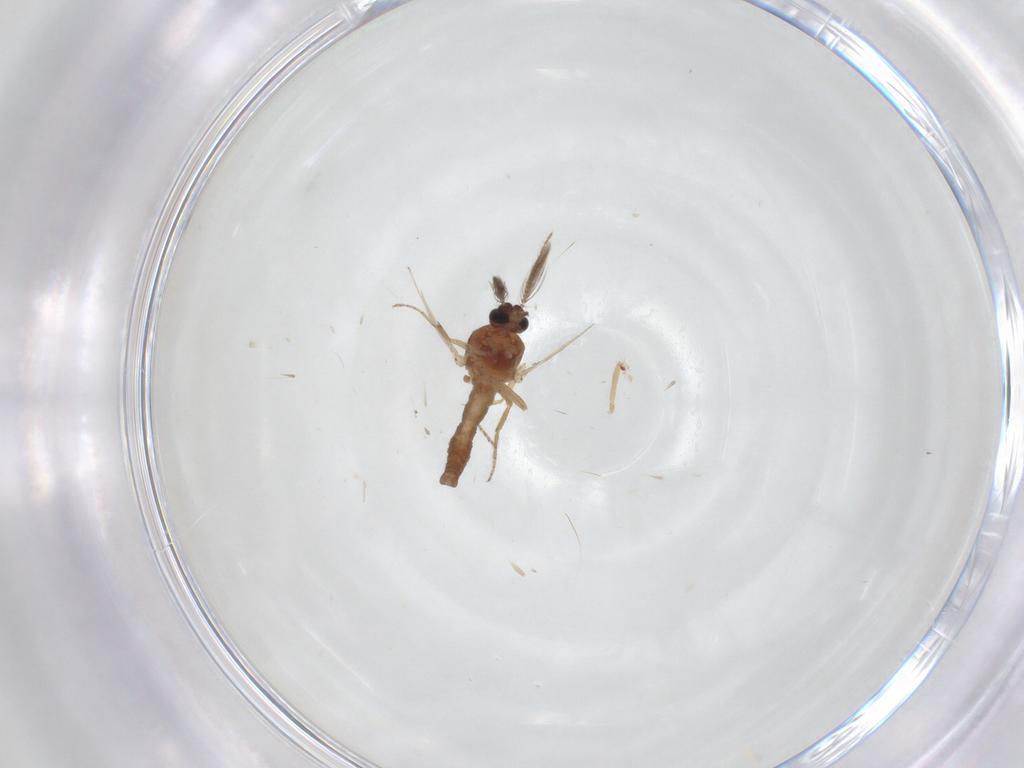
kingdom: Animalia
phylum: Arthropoda
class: Insecta
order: Diptera
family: Ceratopogonidae
